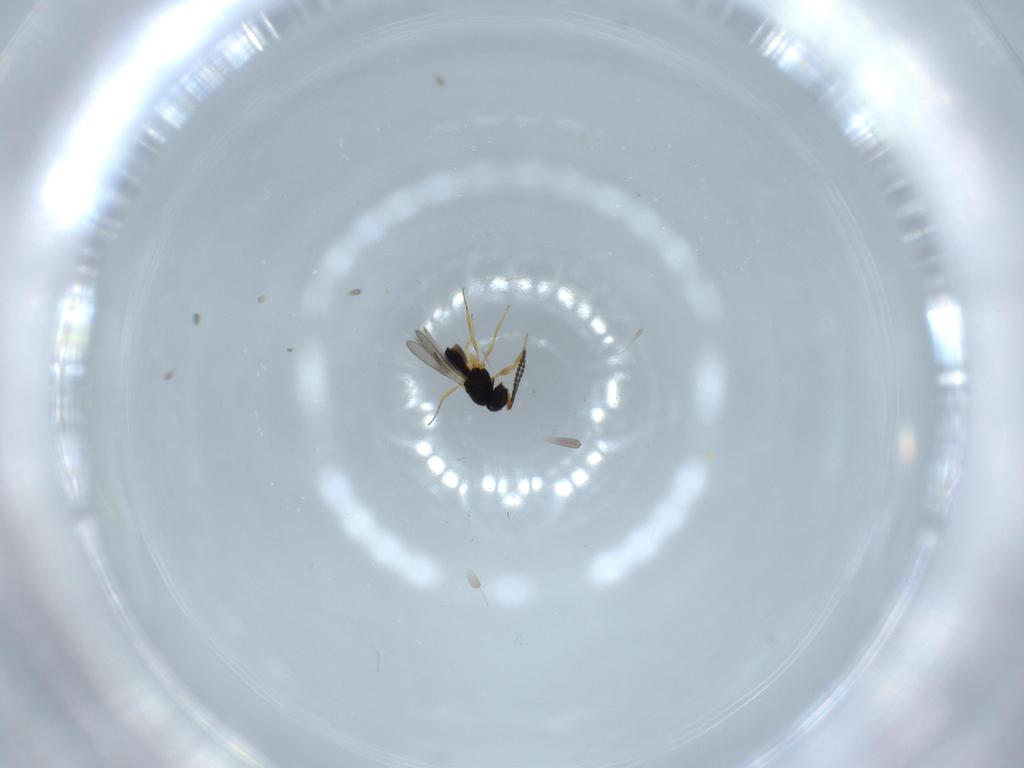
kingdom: Animalia
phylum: Arthropoda
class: Insecta
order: Hymenoptera
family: Scelionidae
